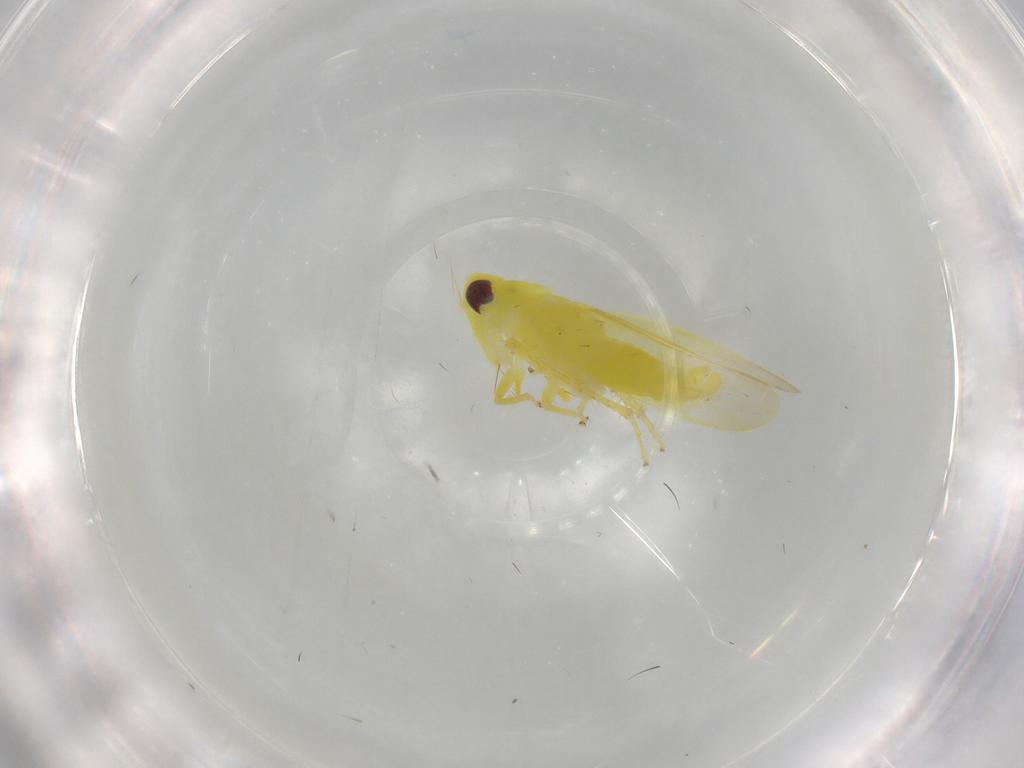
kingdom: Animalia
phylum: Arthropoda
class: Insecta
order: Hemiptera
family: Cicadellidae
